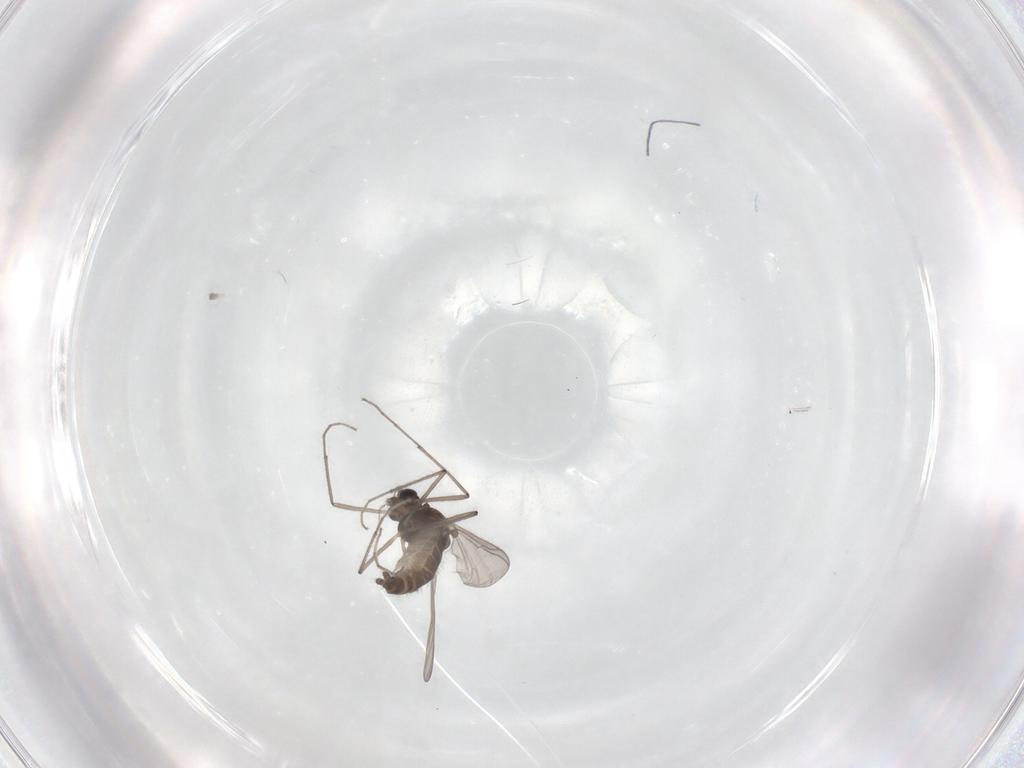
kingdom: Animalia
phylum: Arthropoda
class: Insecta
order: Diptera
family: Chironomidae
